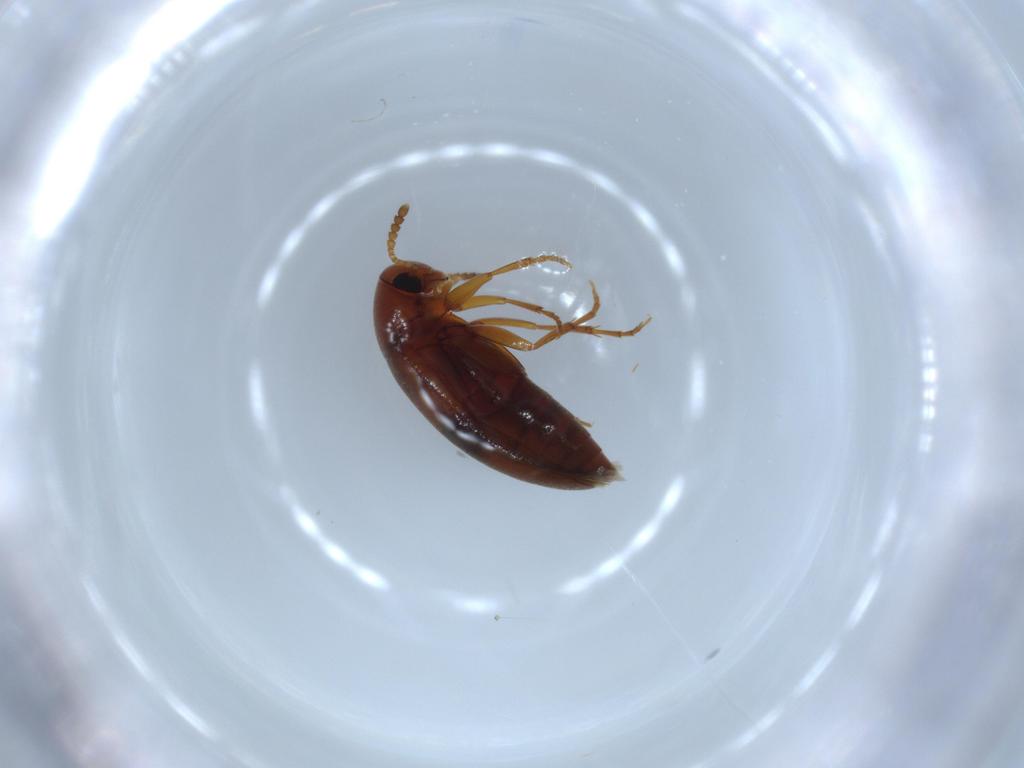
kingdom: Animalia
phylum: Arthropoda
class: Insecta
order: Coleoptera
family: Scraptiidae
